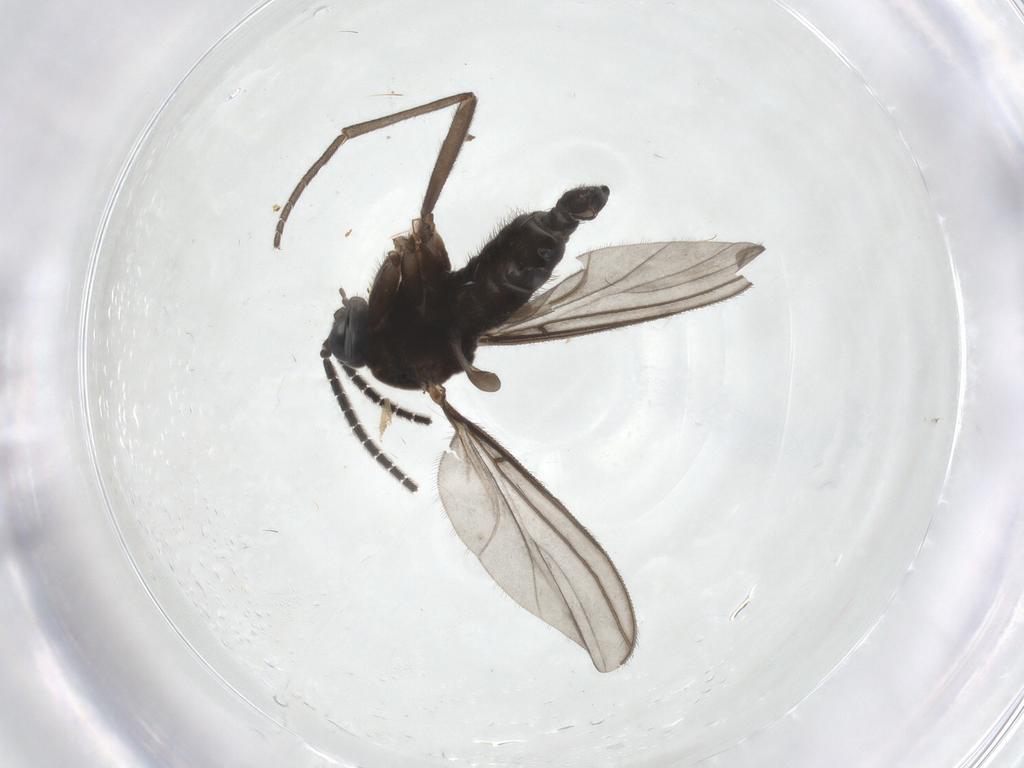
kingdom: Animalia
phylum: Arthropoda
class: Insecta
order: Diptera
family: Sciaridae
